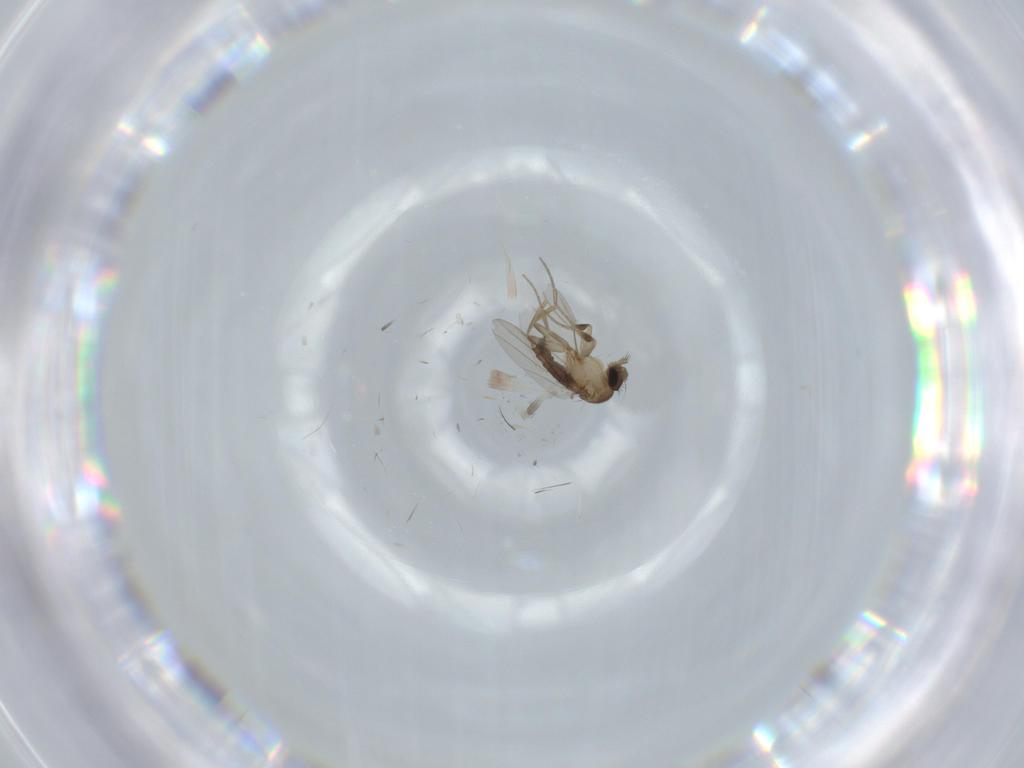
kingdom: Animalia
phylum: Arthropoda
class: Insecta
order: Diptera
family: Phoridae
